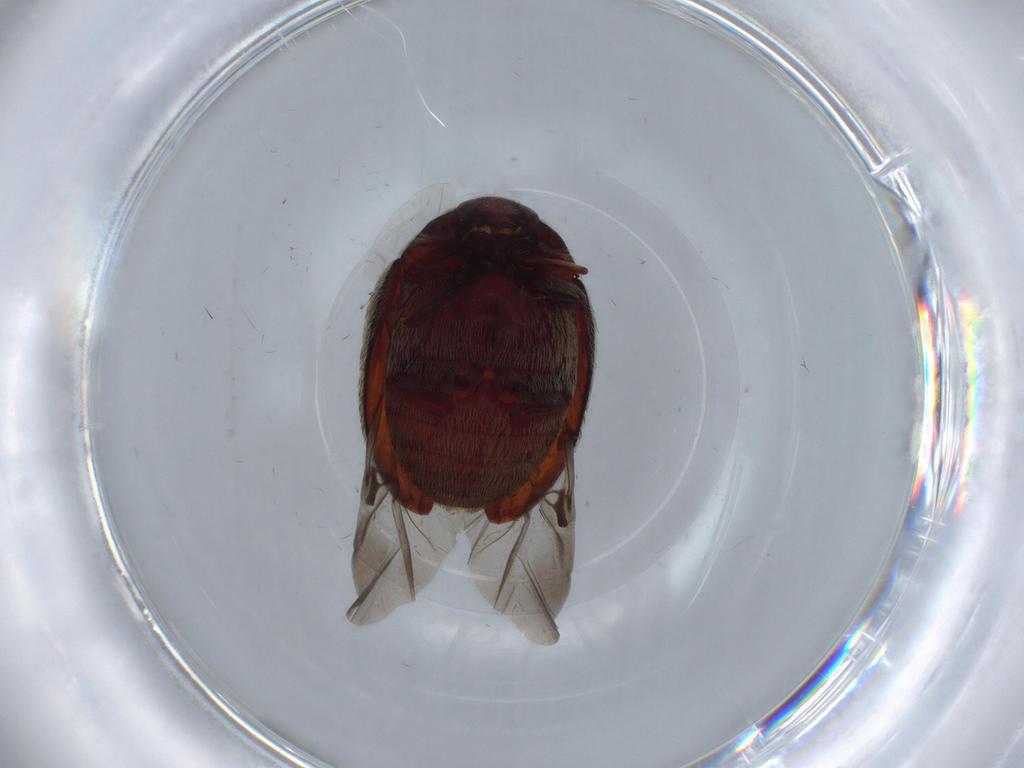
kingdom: Animalia
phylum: Arthropoda
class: Insecta
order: Coleoptera
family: Dermestidae
